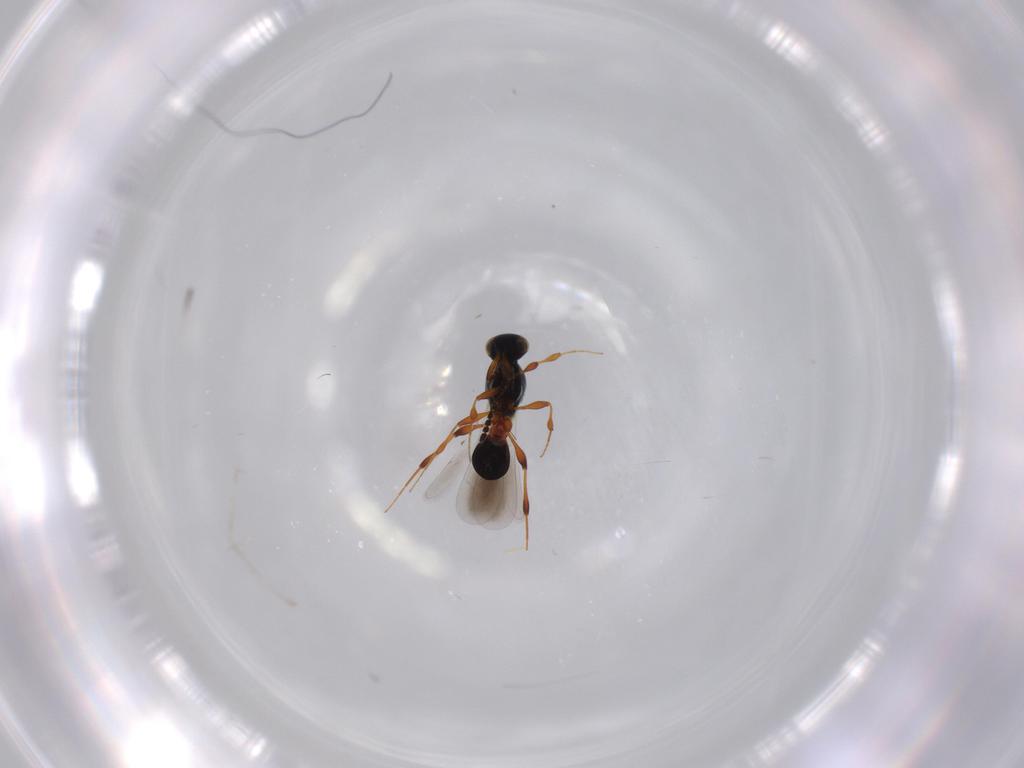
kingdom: Animalia
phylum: Arthropoda
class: Insecta
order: Hymenoptera
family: Platygastridae
